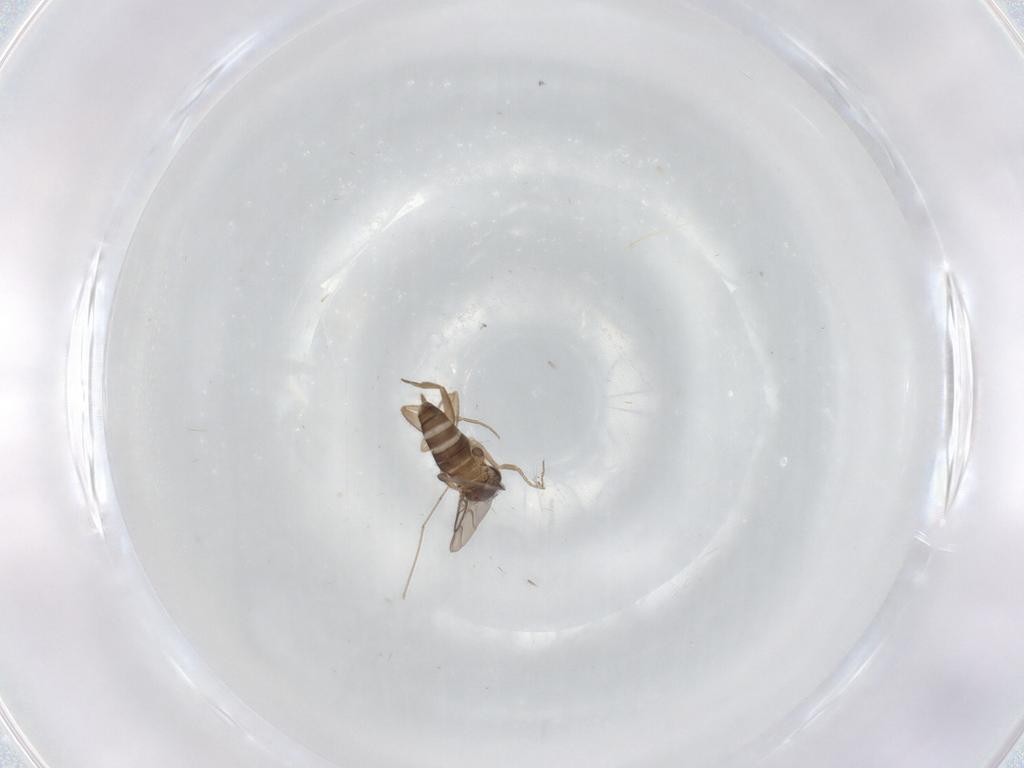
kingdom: Animalia
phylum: Arthropoda
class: Insecta
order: Diptera
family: Phoridae
